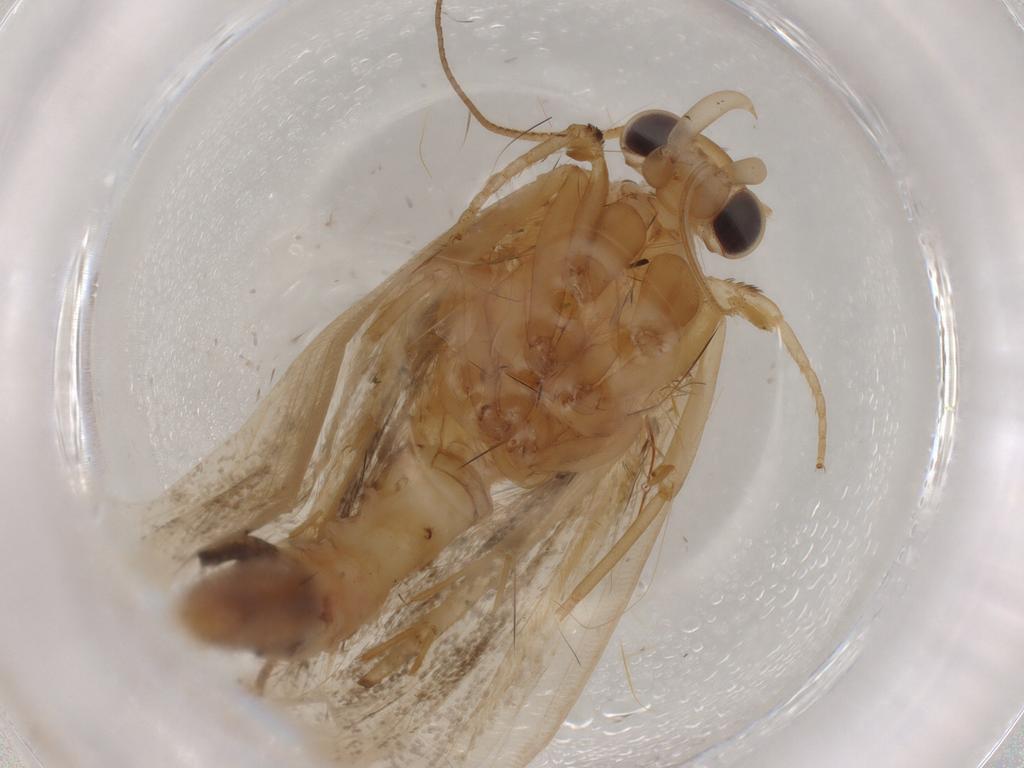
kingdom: Animalia
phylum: Arthropoda
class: Insecta
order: Lepidoptera
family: Immidae
